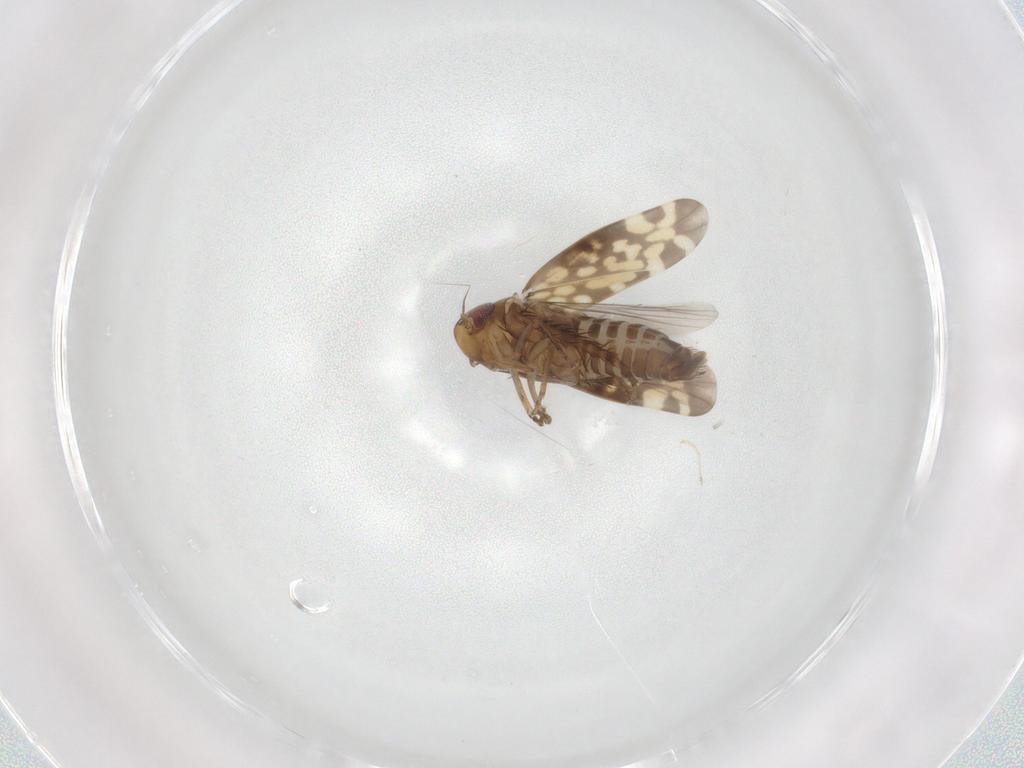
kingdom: Animalia
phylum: Arthropoda
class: Insecta
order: Hemiptera
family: Cicadellidae
